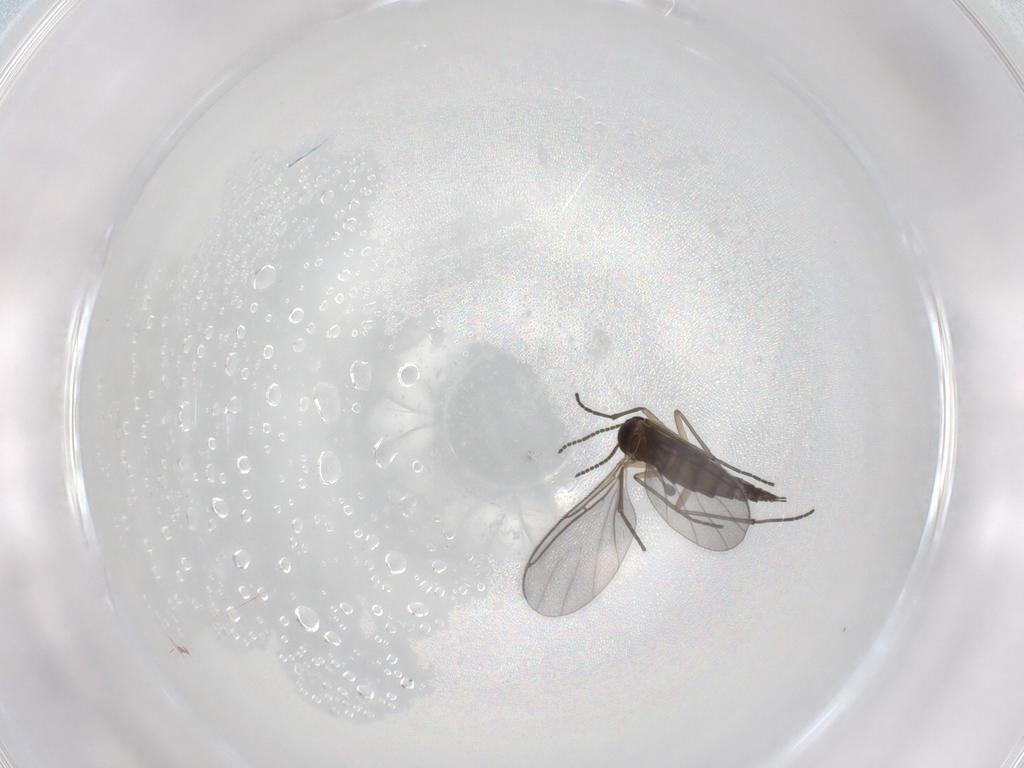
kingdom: Animalia
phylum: Arthropoda
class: Insecta
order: Diptera
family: Sciaridae
